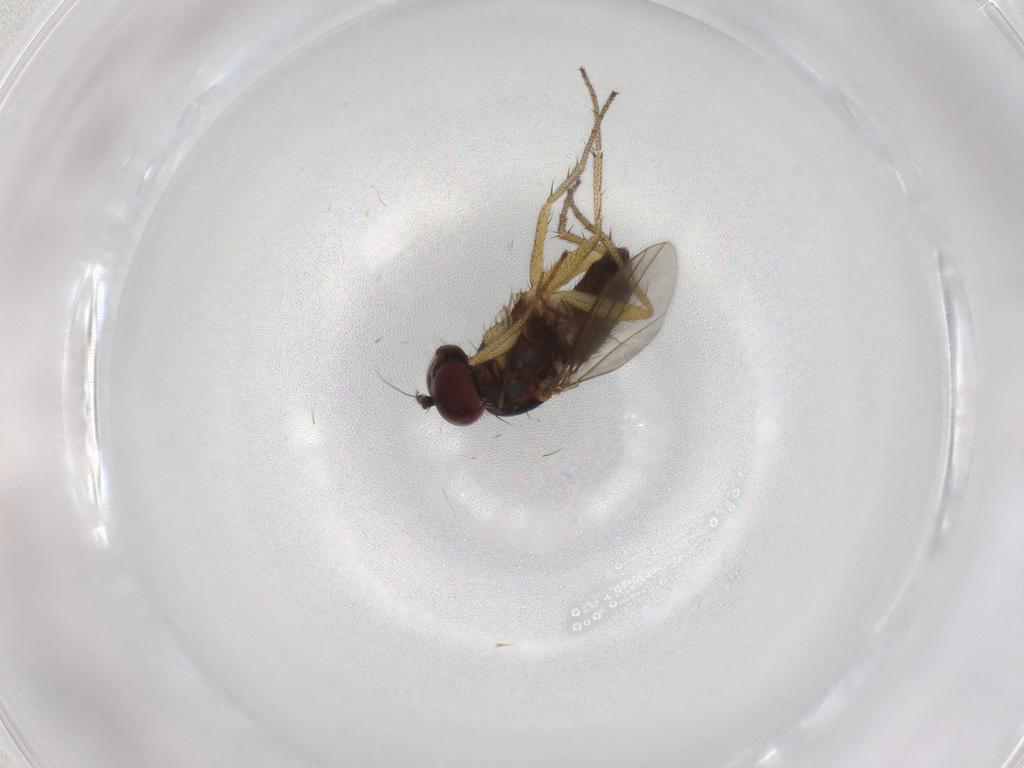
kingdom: Animalia
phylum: Arthropoda
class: Insecta
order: Diptera
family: Dolichopodidae
